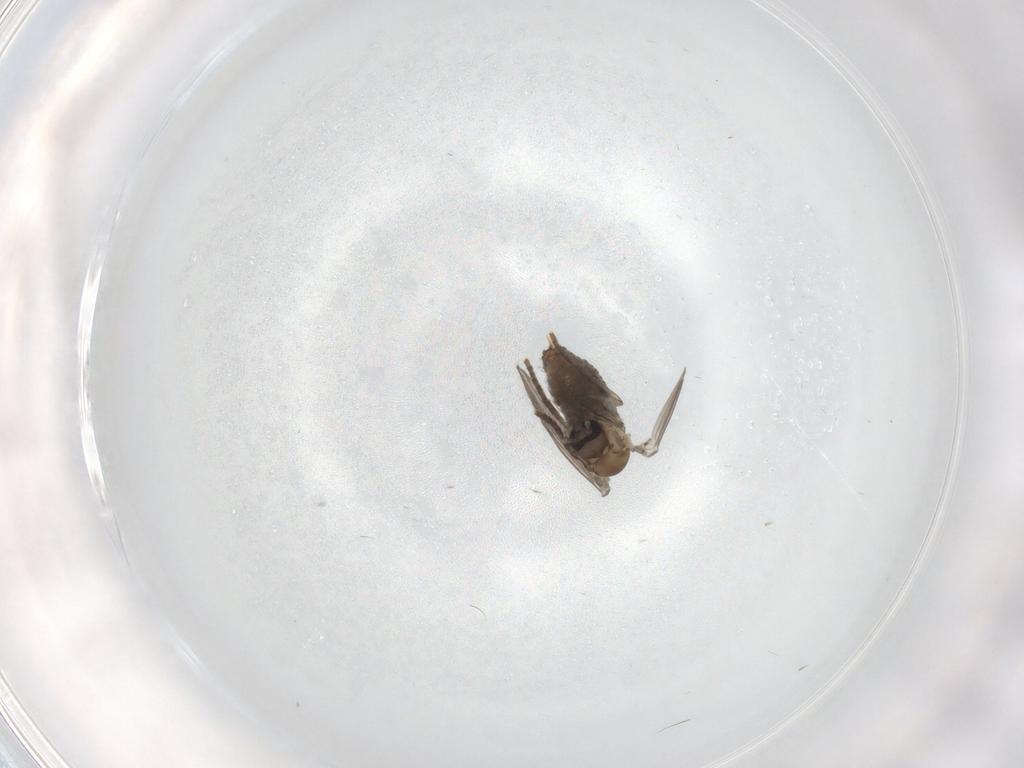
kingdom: Animalia
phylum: Arthropoda
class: Insecta
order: Diptera
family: Psychodidae
